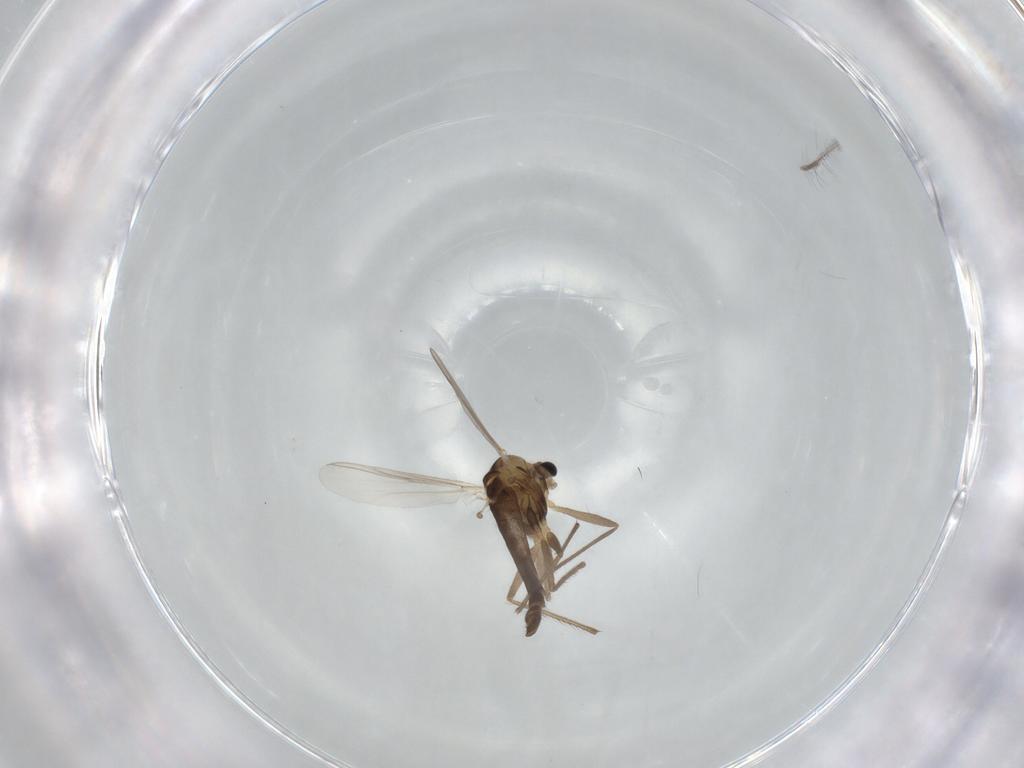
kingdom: Animalia
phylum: Arthropoda
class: Insecta
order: Diptera
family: Chironomidae
